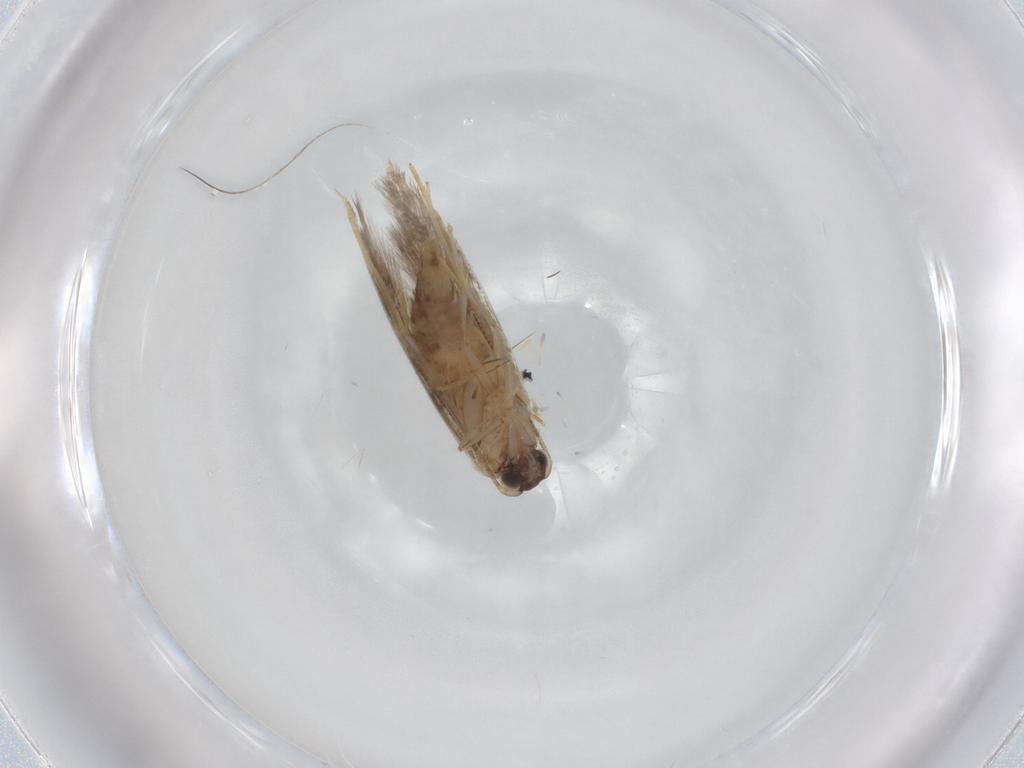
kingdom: Animalia
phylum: Arthropoda
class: Insecta
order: Lepidoptera
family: Tineidae
